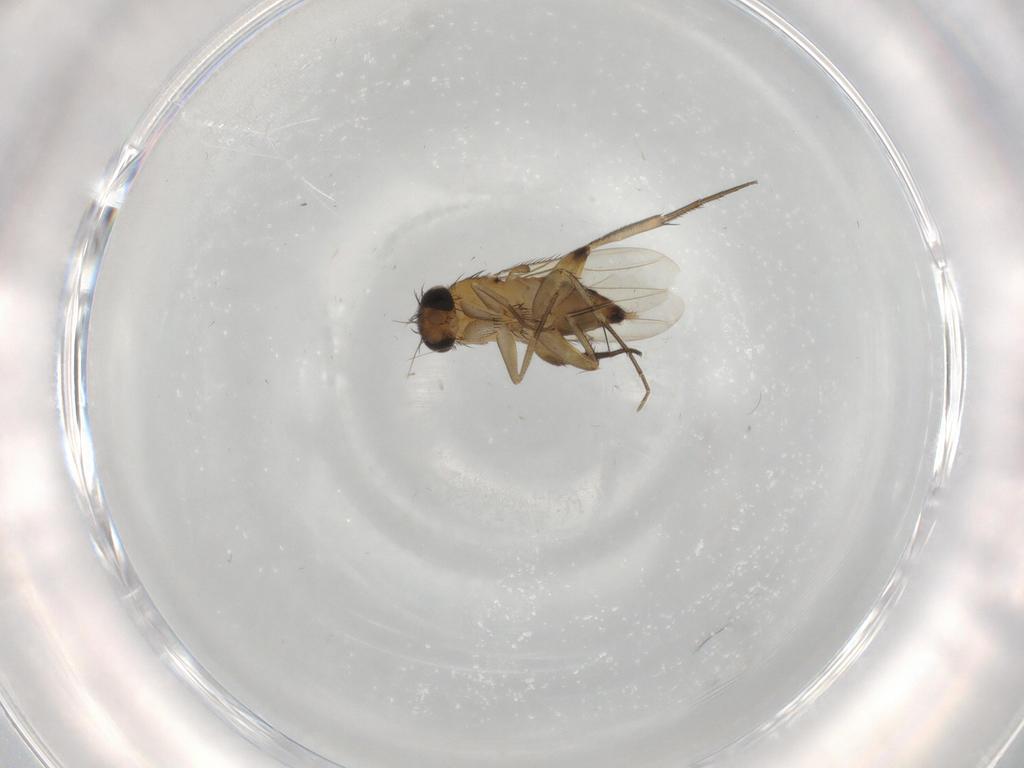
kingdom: Animalia
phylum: Arthropoda
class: Insecta
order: Diptera
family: Phoridae
